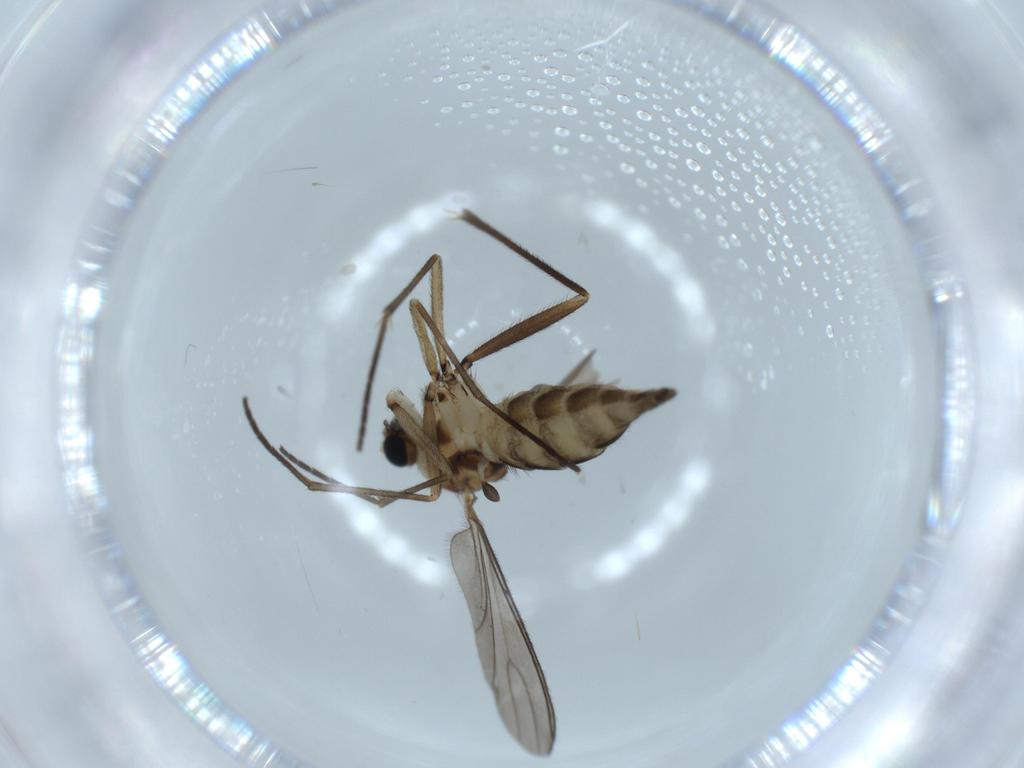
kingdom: Animalia
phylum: Arthropoda
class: Insecta
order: Diptera
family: Sciaridae
